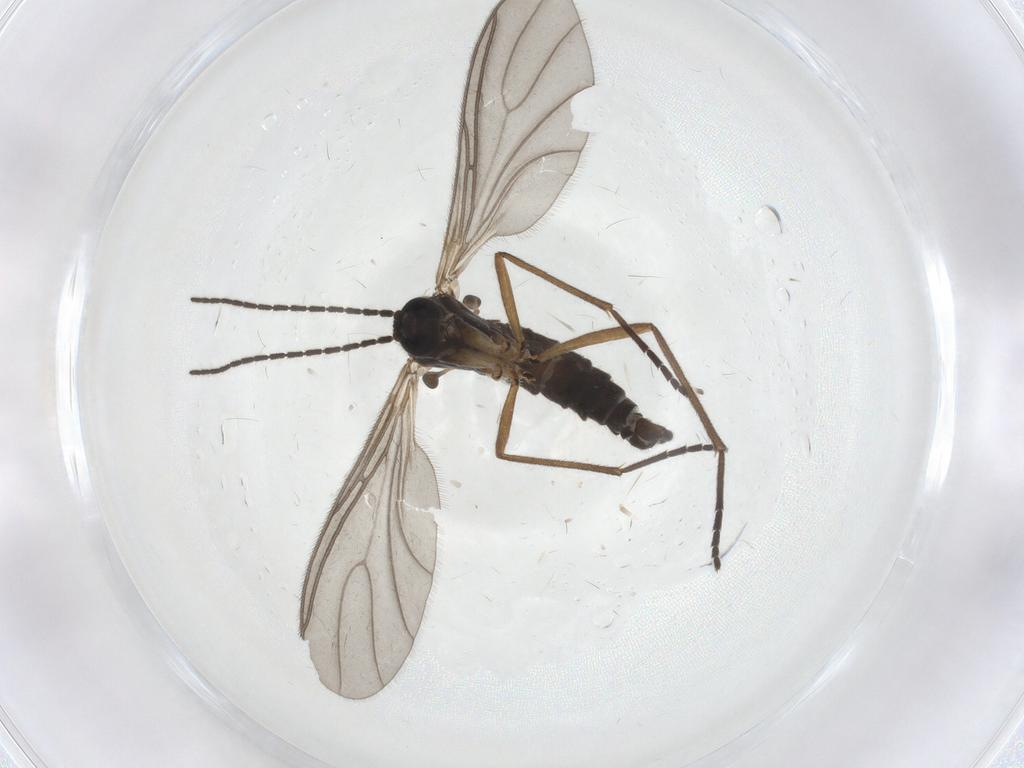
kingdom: Animalia
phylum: Arthropoda
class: Insecta
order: Diptera
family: Sciaridae
